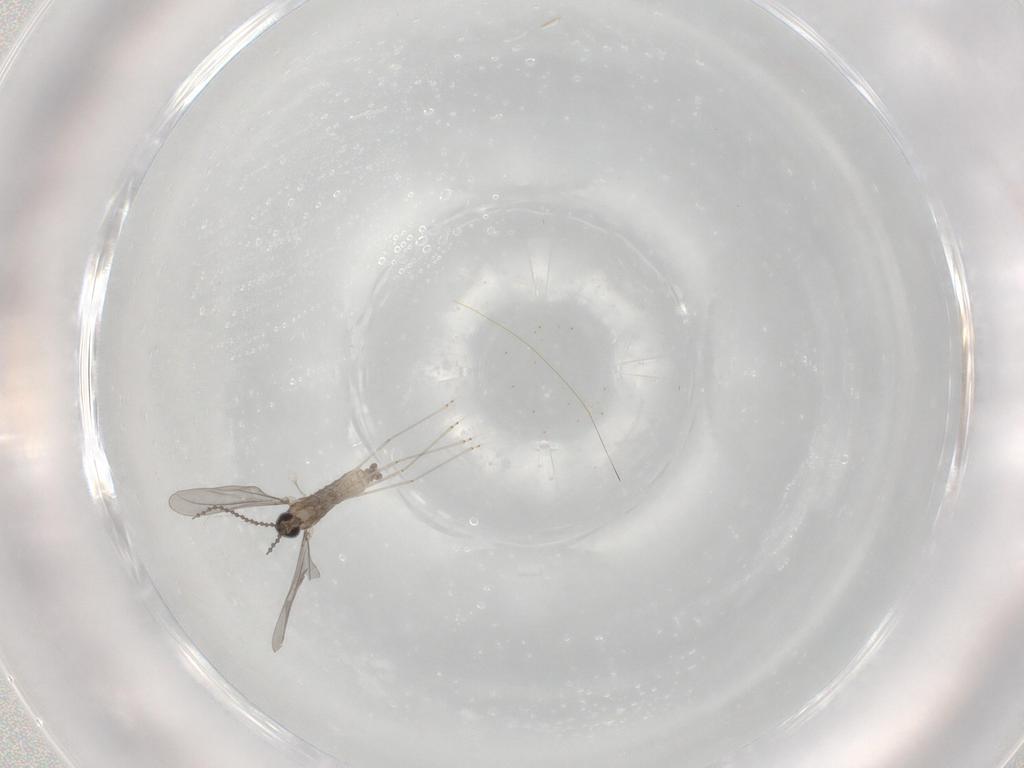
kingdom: Animalia
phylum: Arthropoda
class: Insecta
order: Diptera
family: Cecidomyiidae
